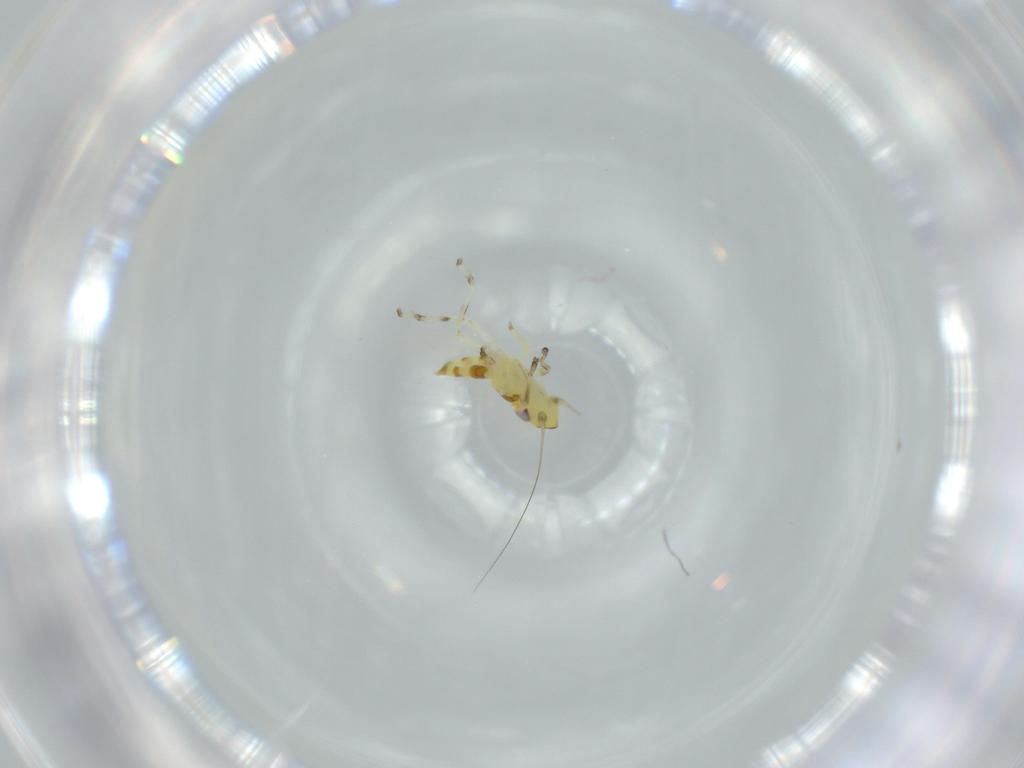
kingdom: Animalia
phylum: Arthropoda
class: Insecta
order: Hemiptera
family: Cicadellidae
